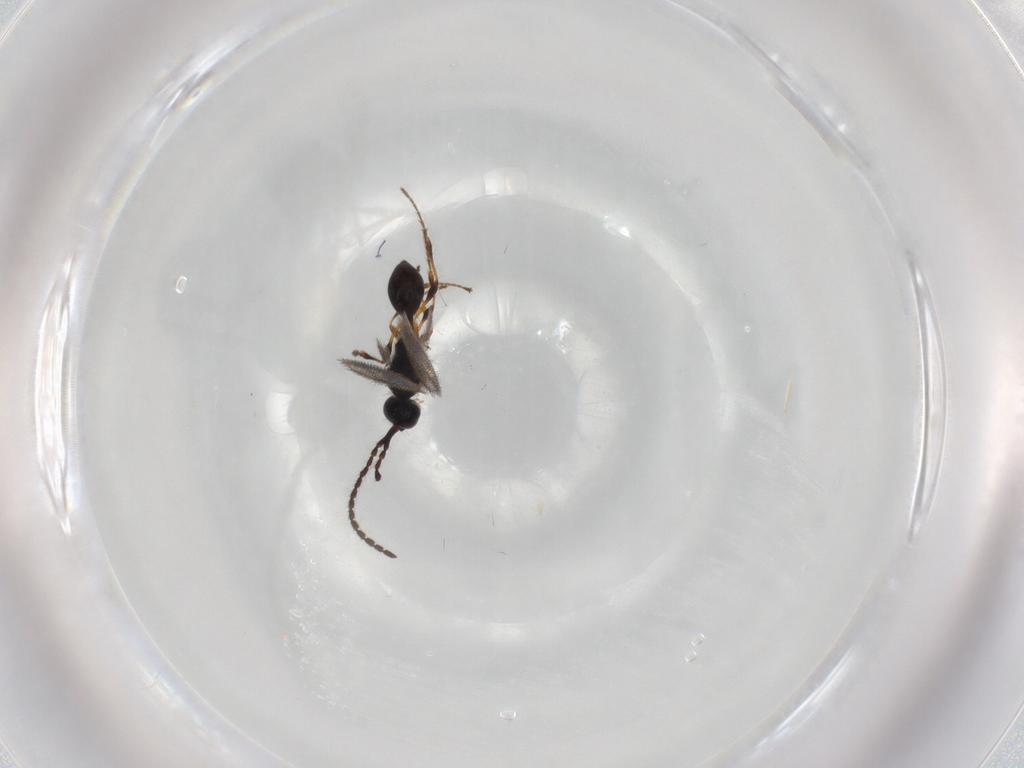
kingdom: Animalia
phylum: Arthropoda
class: Insecta
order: Hymenoptera
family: Diapriidae
